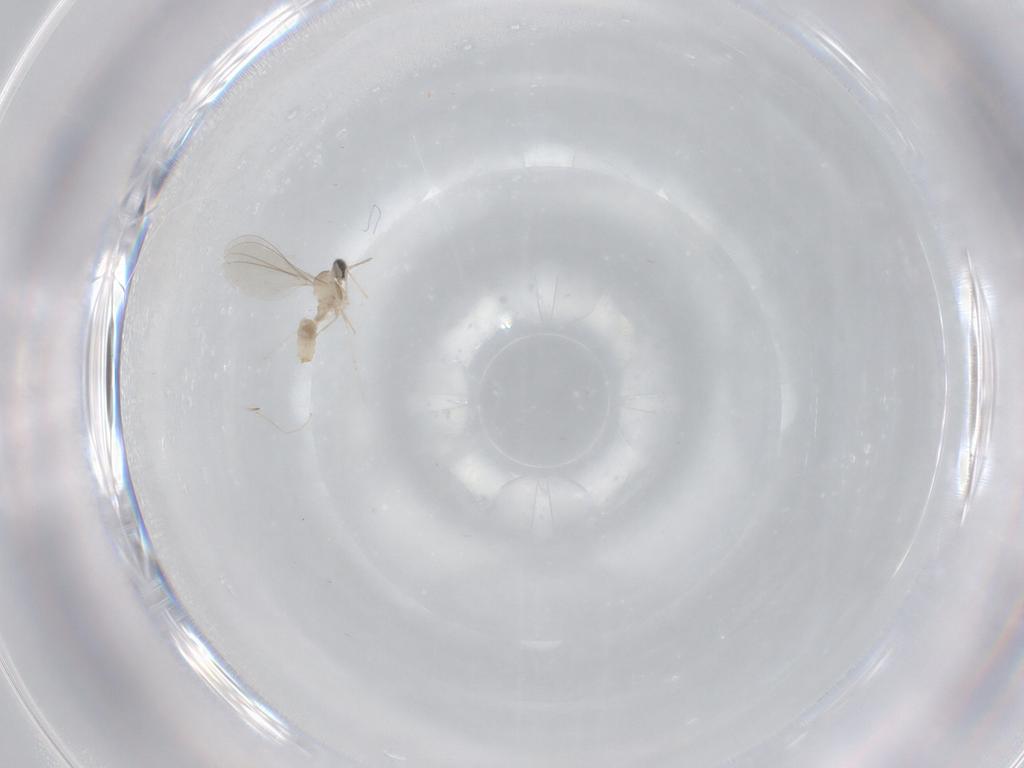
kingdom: Animalia
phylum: Arthropoda
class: Insecta
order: Diptera
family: Cecidomyiidae
